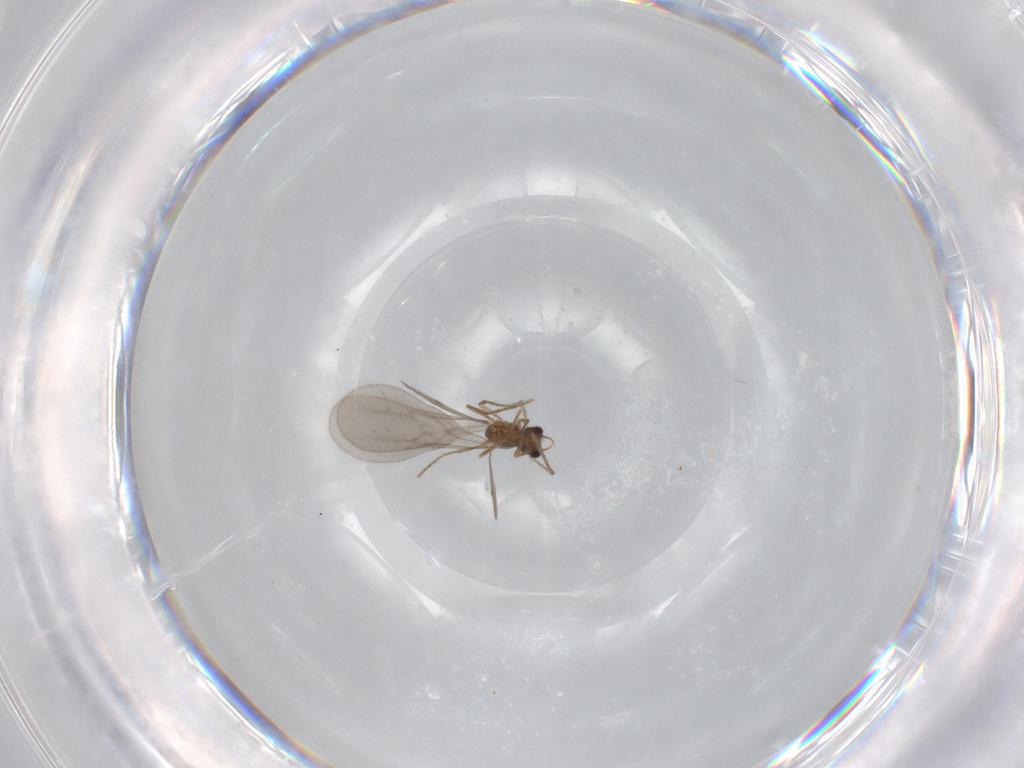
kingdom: Animalia
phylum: Arthropoda
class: Insecta
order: Hymenoptera
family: Formicidae
